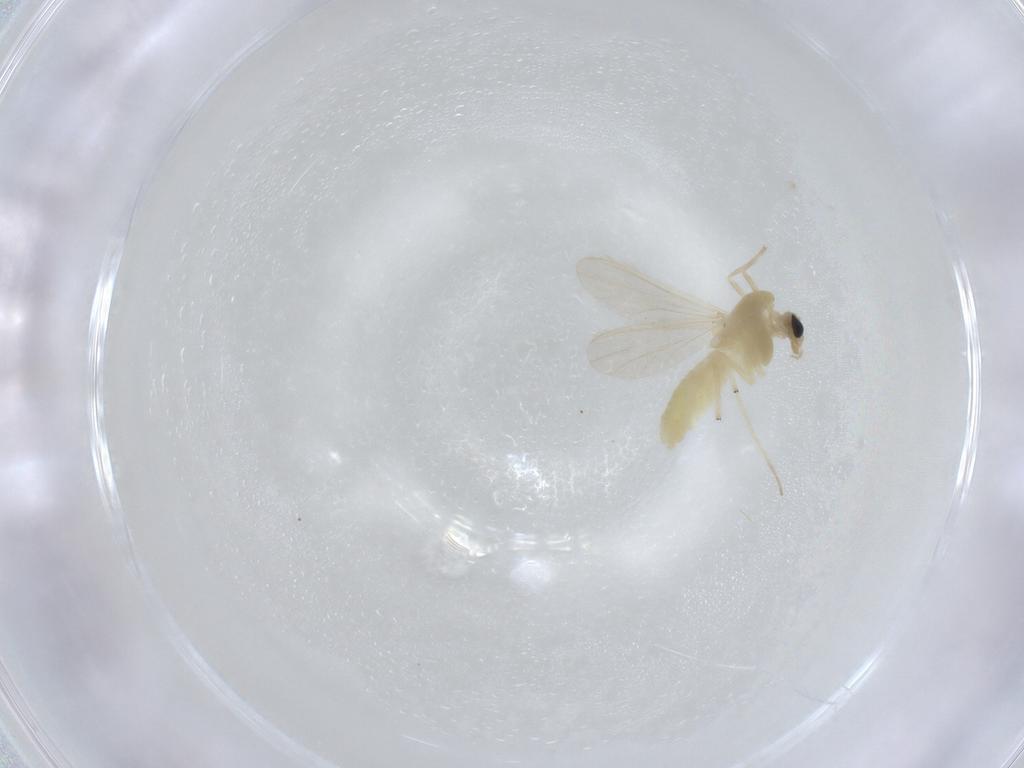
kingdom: Animalia
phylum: Arthropoda
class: Insecta
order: Diptera
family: Chironomidae
